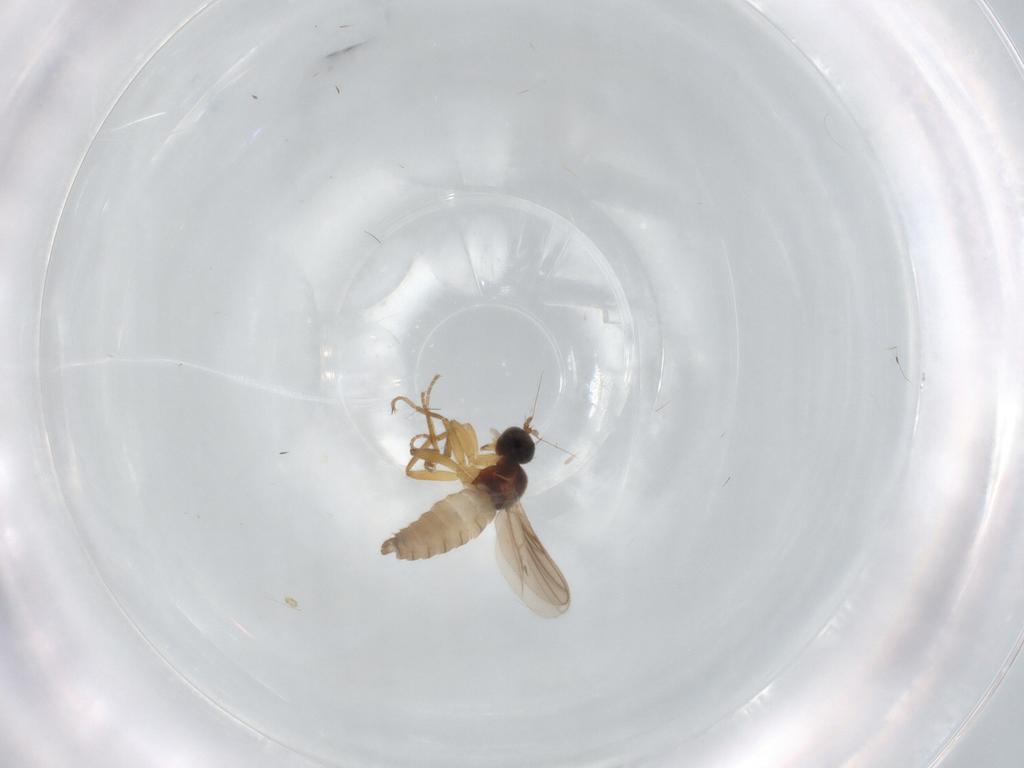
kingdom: Animalia
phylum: Arthropoda
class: Insecta
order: Diptera
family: Hybotidae
